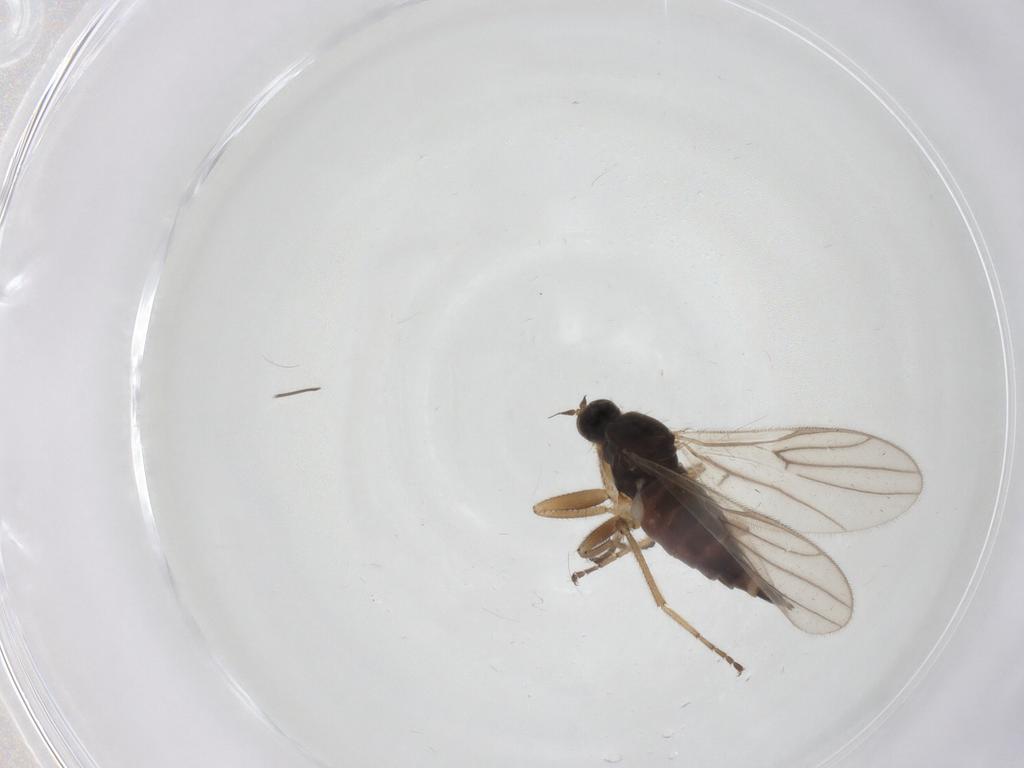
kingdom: Animalia
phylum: Arthropoda
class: Insecta
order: Diptera
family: Hybotidae
